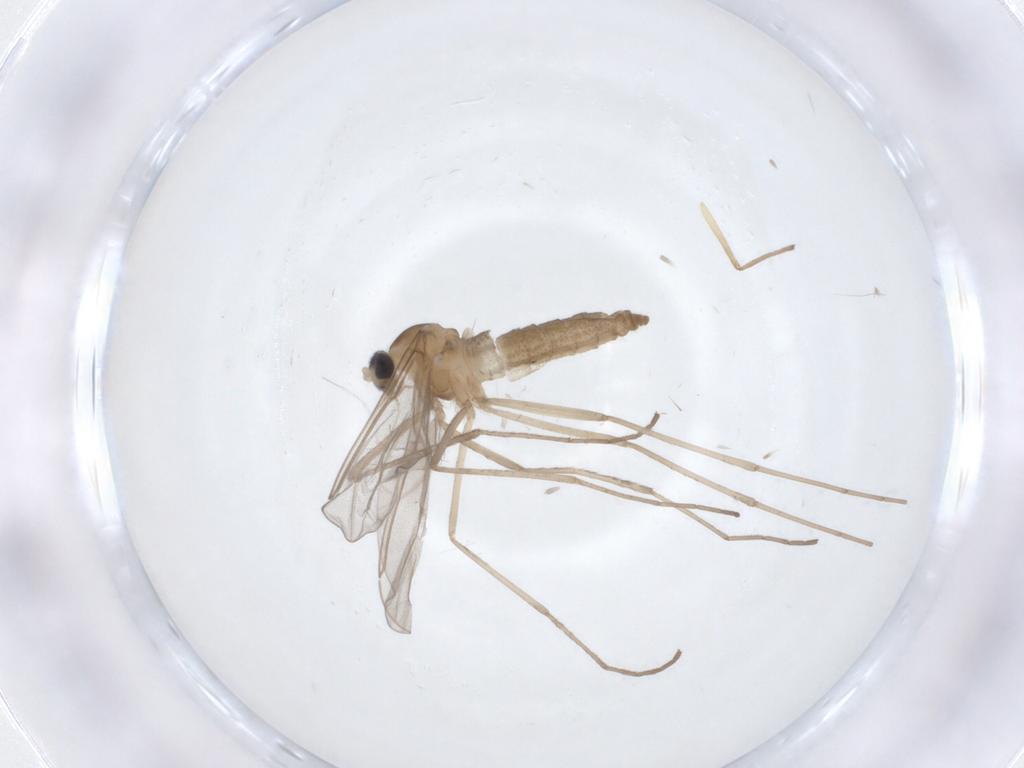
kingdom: Animalia
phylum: Arthropoda
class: Insecta
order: Diptera
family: Chironomidae
